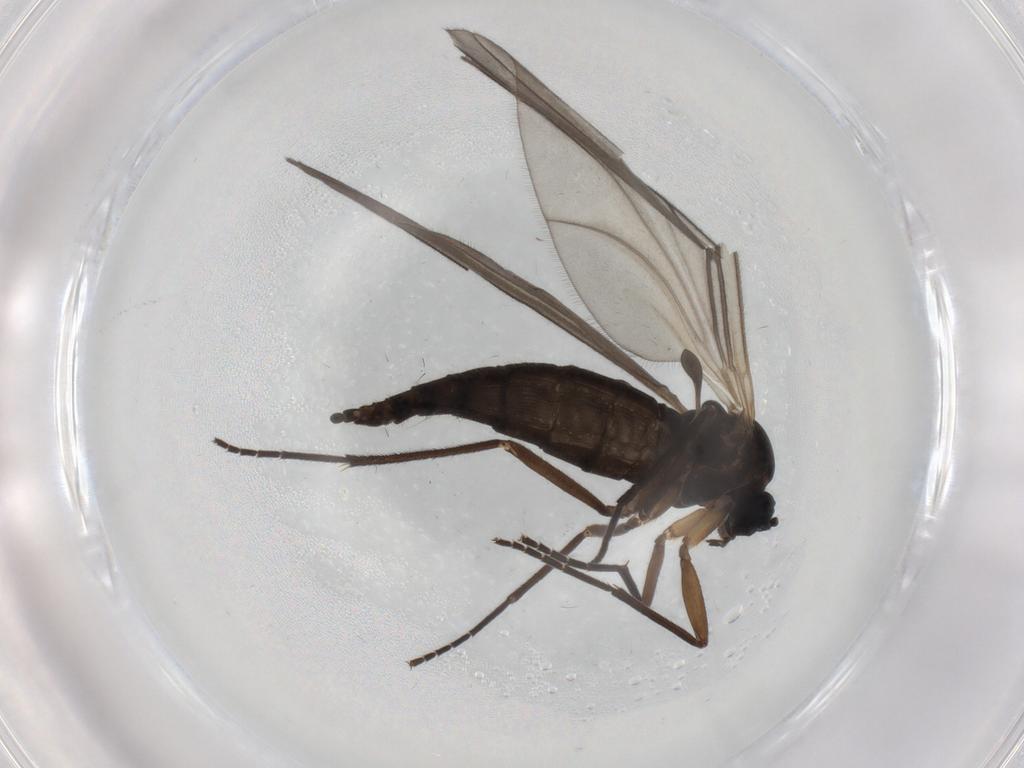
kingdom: Animalia
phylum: Arthropoda
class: Insecta
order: Diptera
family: Sciaridae
